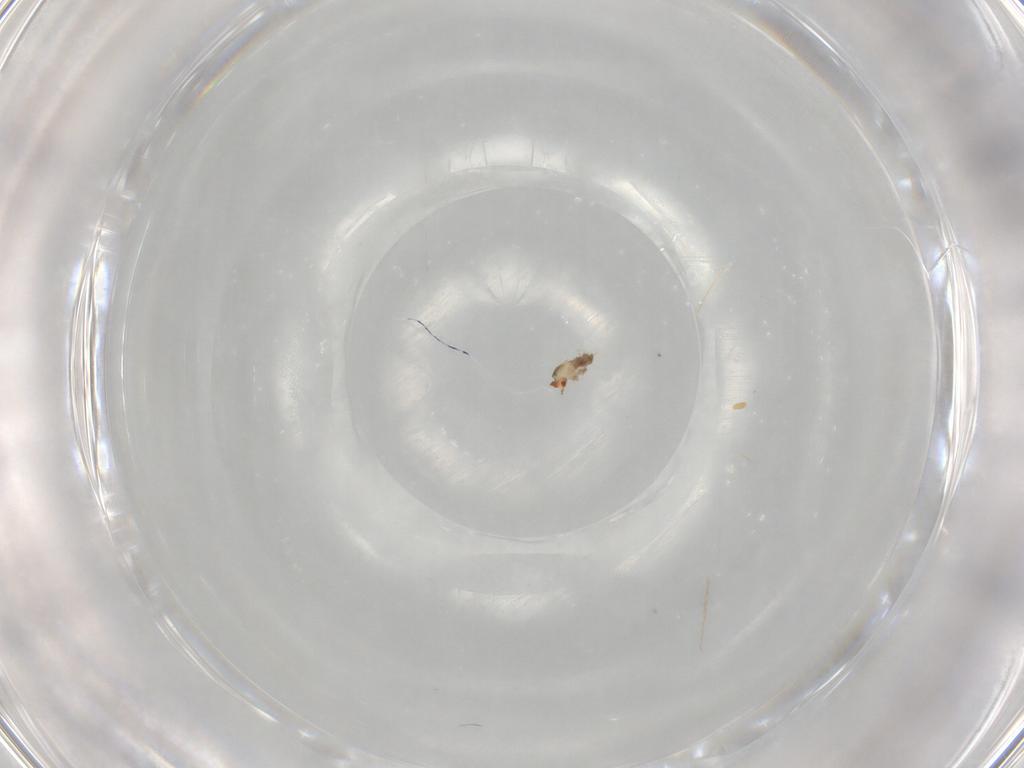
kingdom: Animalia
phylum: Arthropoda
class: Insecta
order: Diptera
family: Cecidomyiidae
